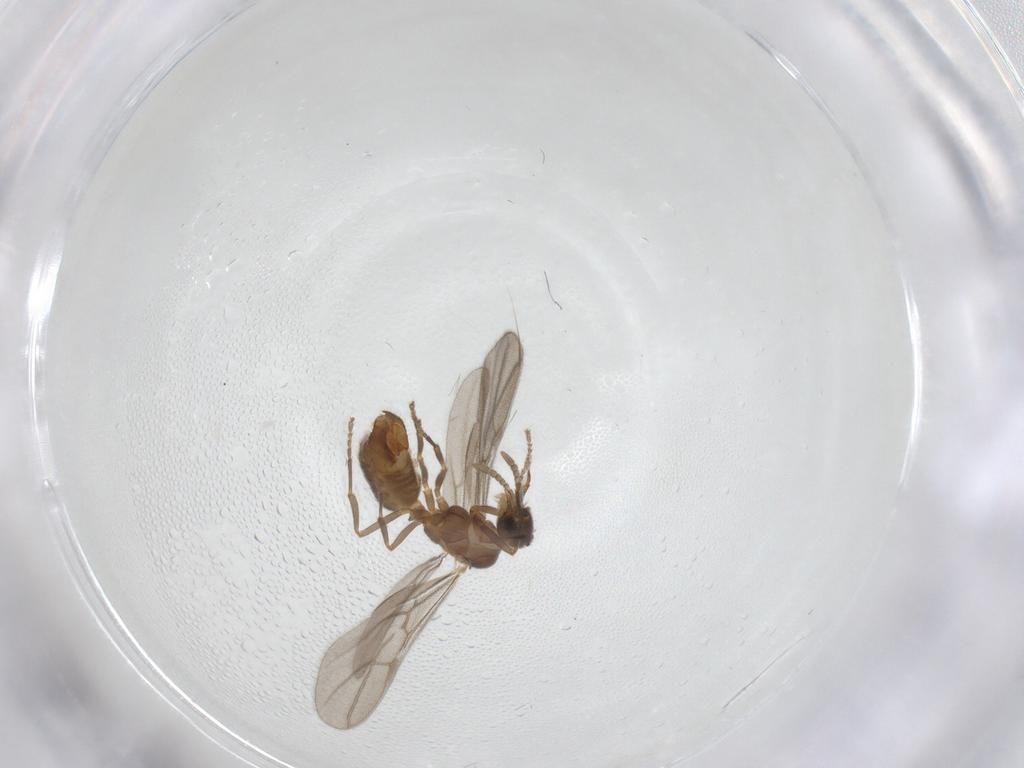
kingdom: Animalia
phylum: Arthropoda
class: Insecta
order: Hymenoptera
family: Formicidae
